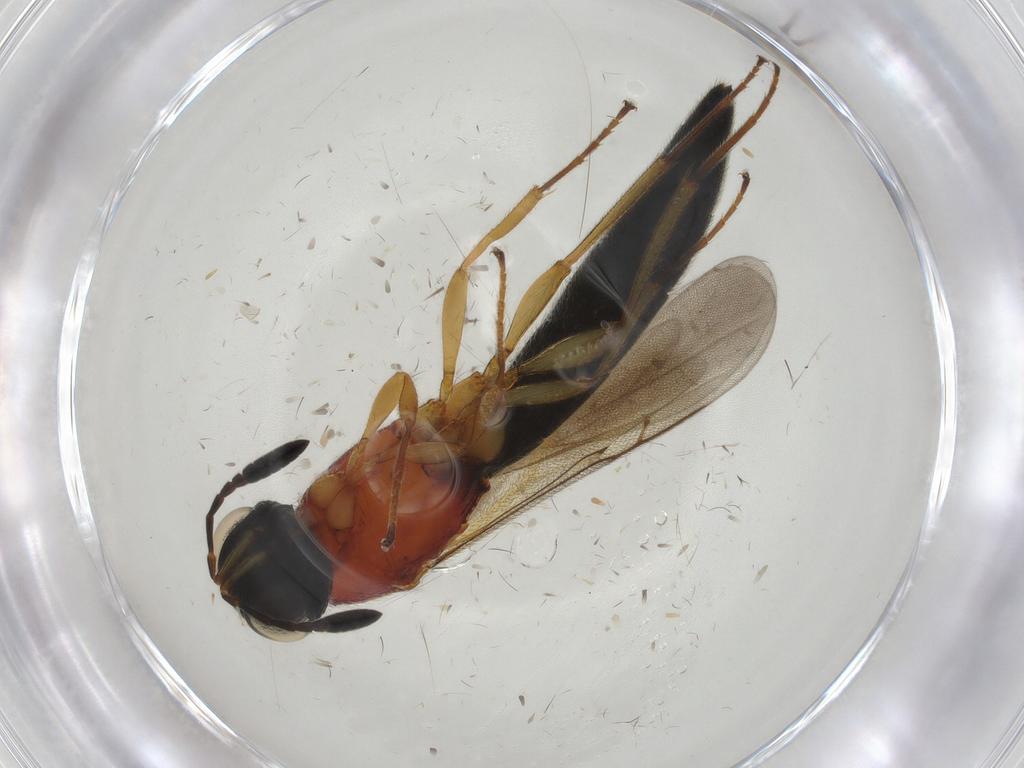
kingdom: Animalia
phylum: Arthropoda
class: Insecta
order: Hymenoptera
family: Scelionidae
